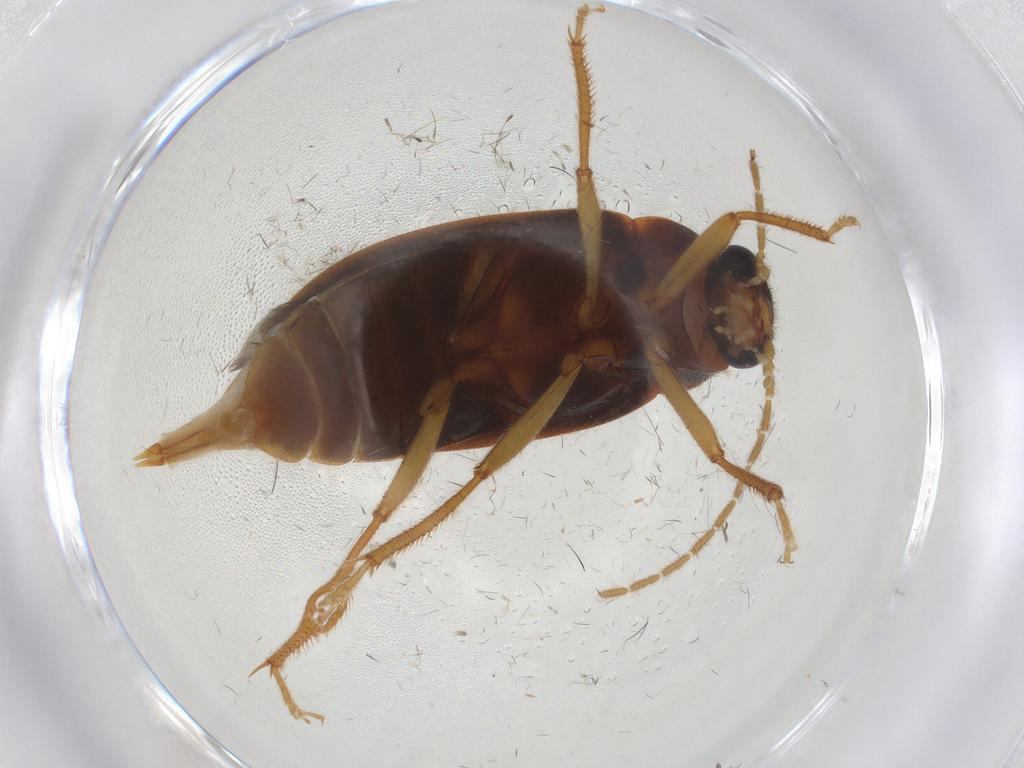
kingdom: Animalia
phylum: Arthropoda
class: Insecta
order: Coleoptera
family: Ptilodactylidae
